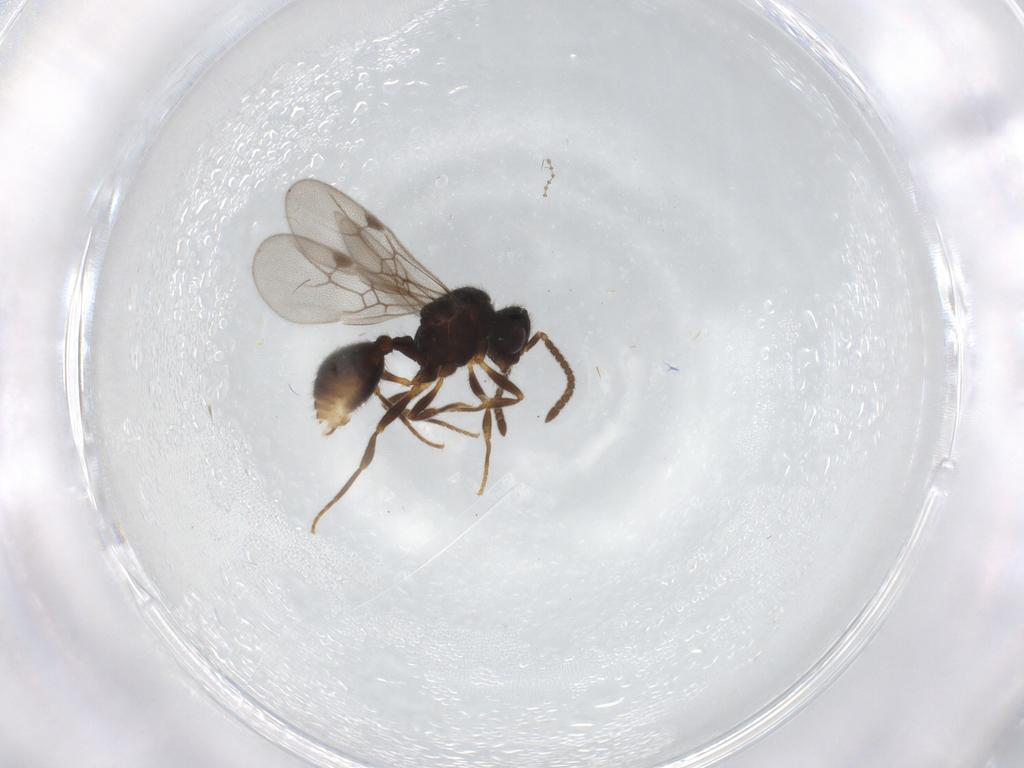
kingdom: Animalia
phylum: Arthropoda
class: Insecta
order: Hymenoptera
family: Formicidae
